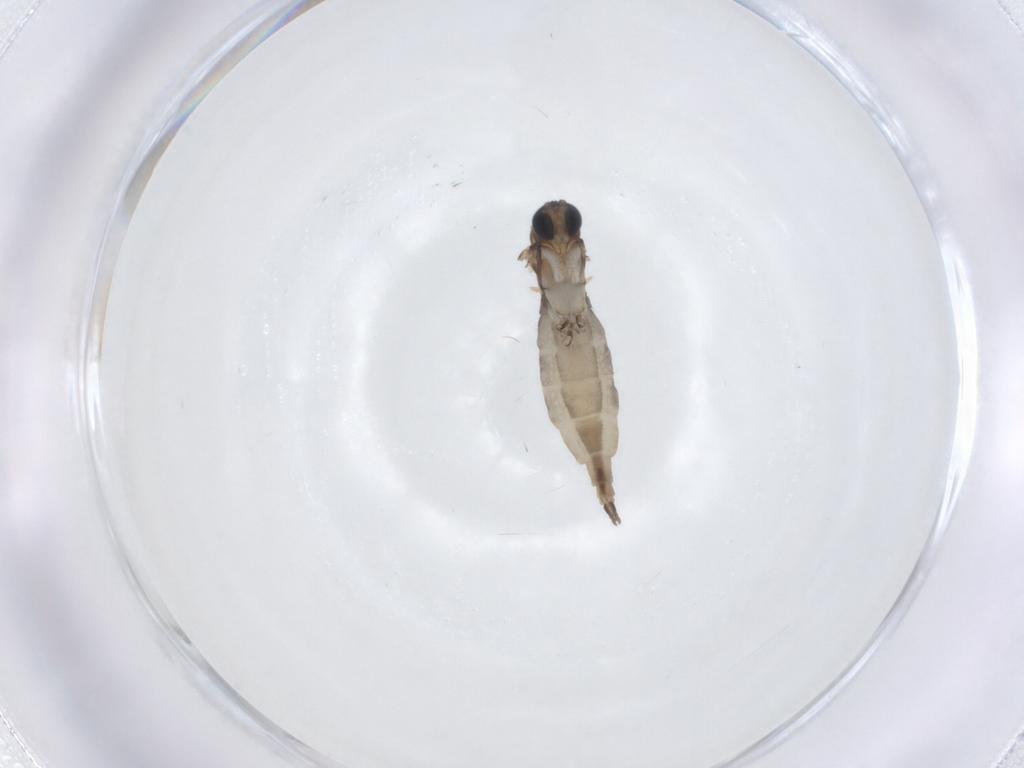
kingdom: Animalia
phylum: Arthropoda
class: Insecta
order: Diptera
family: Sciaridae
